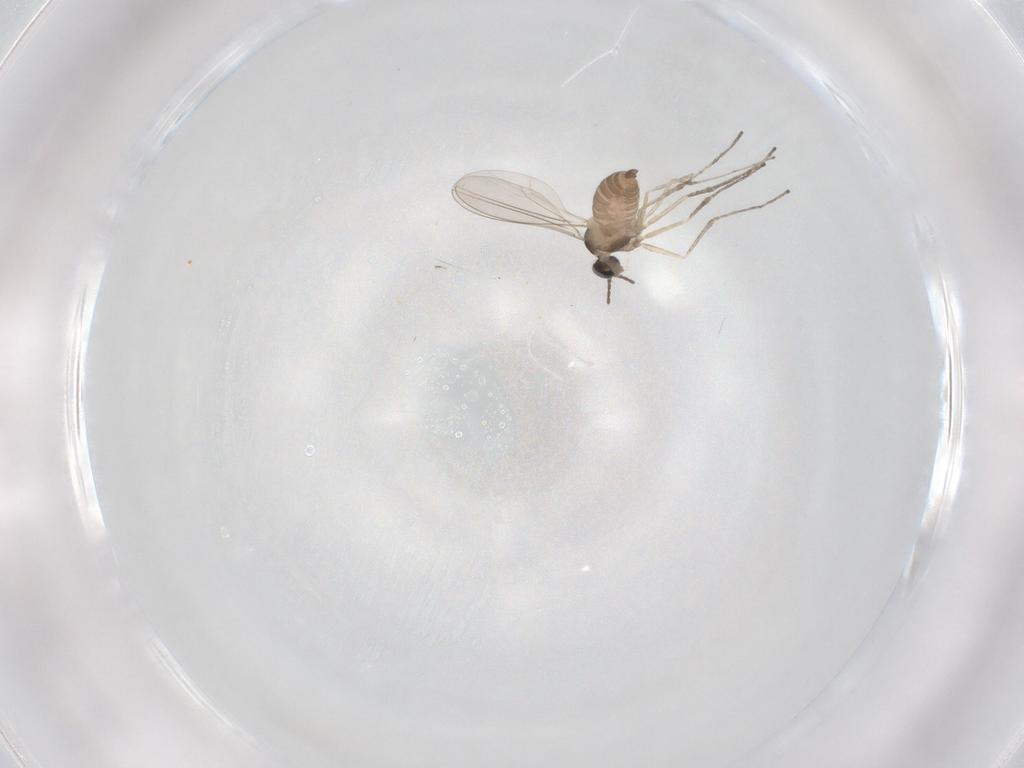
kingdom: Animalia
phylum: Arthropoda
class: Insecta
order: Diptera
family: Cecidomyiidae
